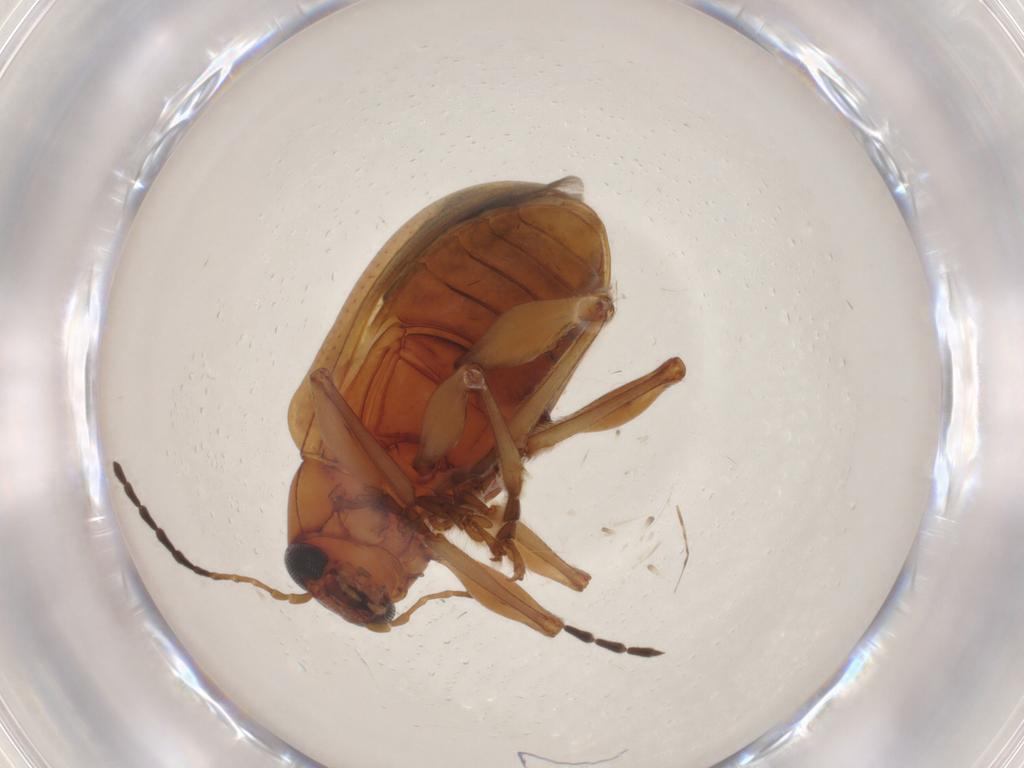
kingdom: Animalia
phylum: Arthropoda
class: Insecta
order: Coleoptera
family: Chrysomelidae
